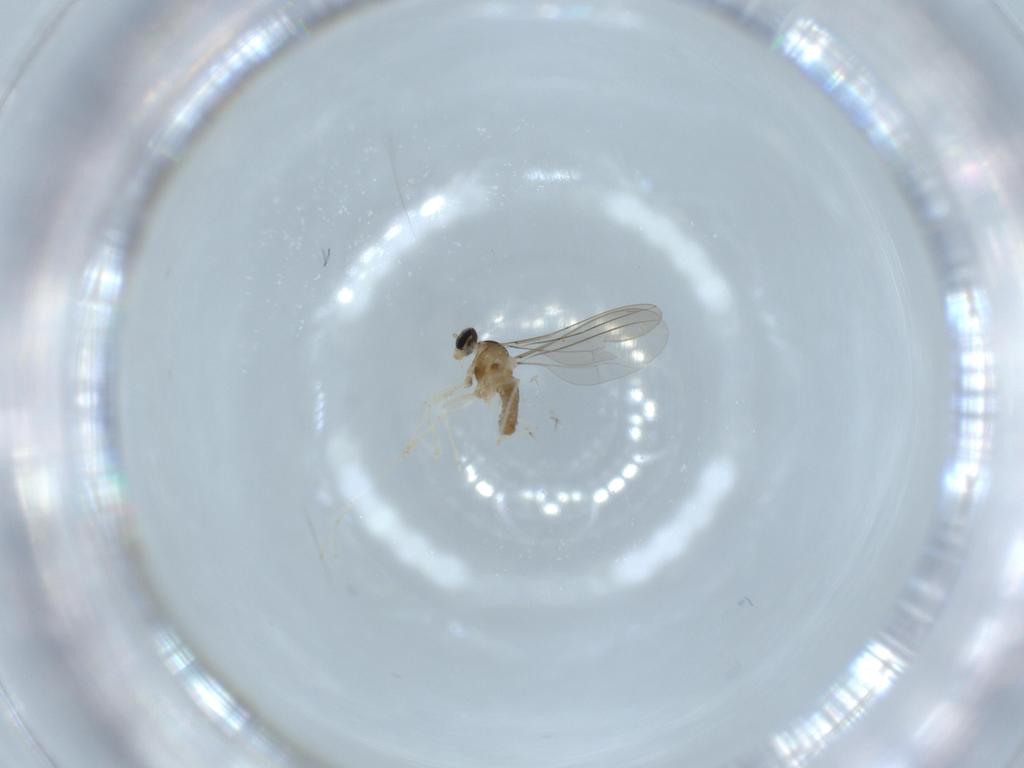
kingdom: Animalia
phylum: Arthropoda
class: Insecta
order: Diptera
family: Cecidomyiidae
